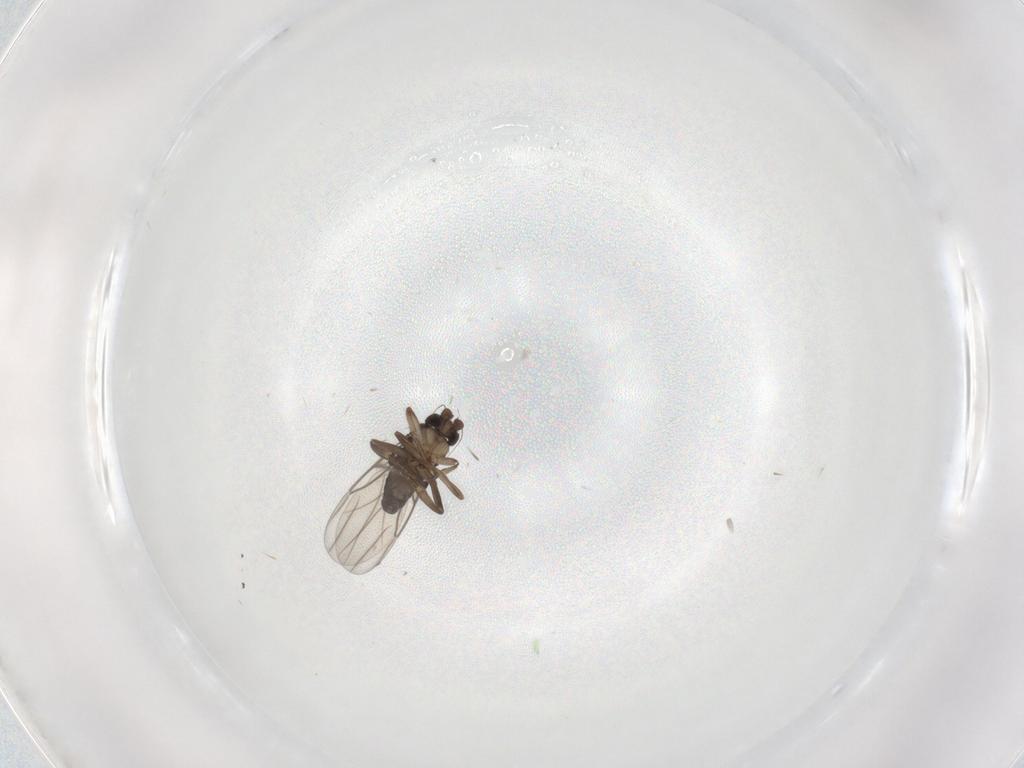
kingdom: Animalia
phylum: Arthropoda
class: Insecta
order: Diptera
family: Phoridae
